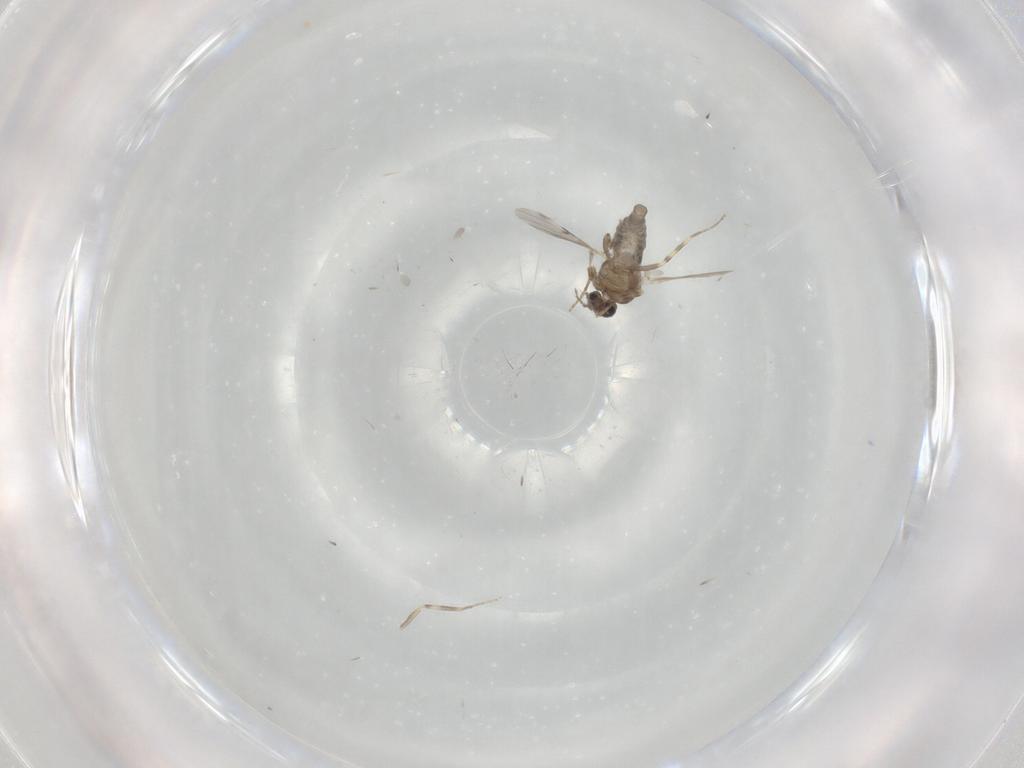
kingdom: Animalia
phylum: Arthropoda
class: Insecta
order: Diptera
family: Ceratopogonidae
